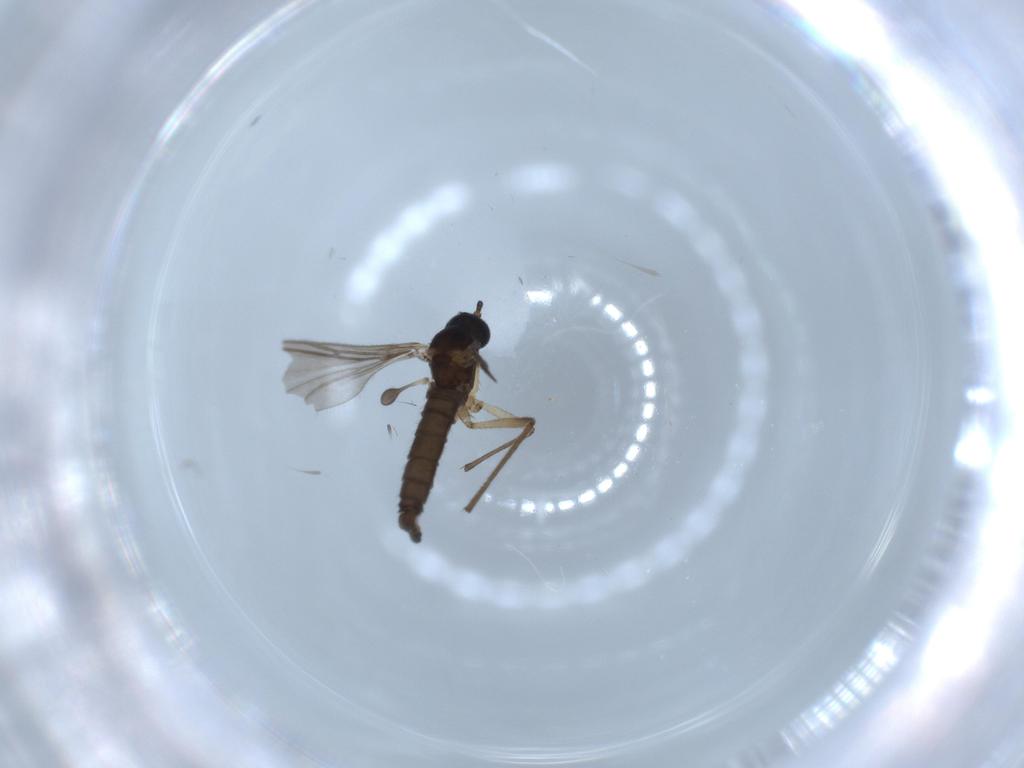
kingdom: Animalia
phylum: Arthropoda
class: Insecta
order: Diptera
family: Sciaridae
